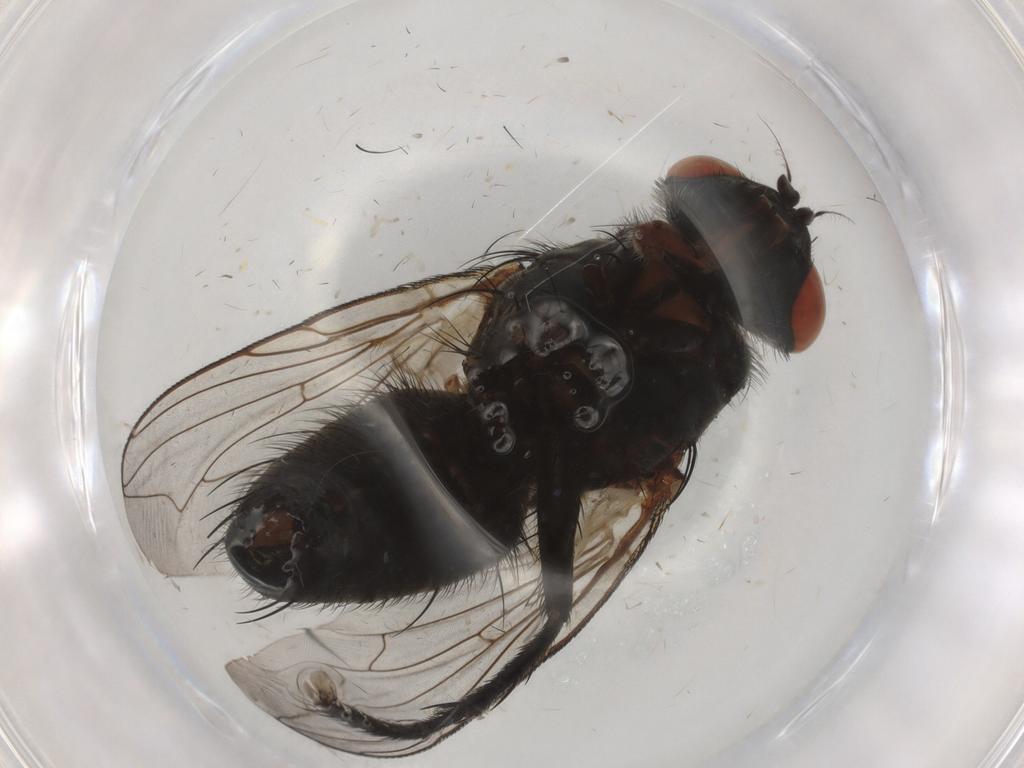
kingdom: Animalia
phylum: Arthropoda
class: Insecta
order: Diptera
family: Sarcophagidae
